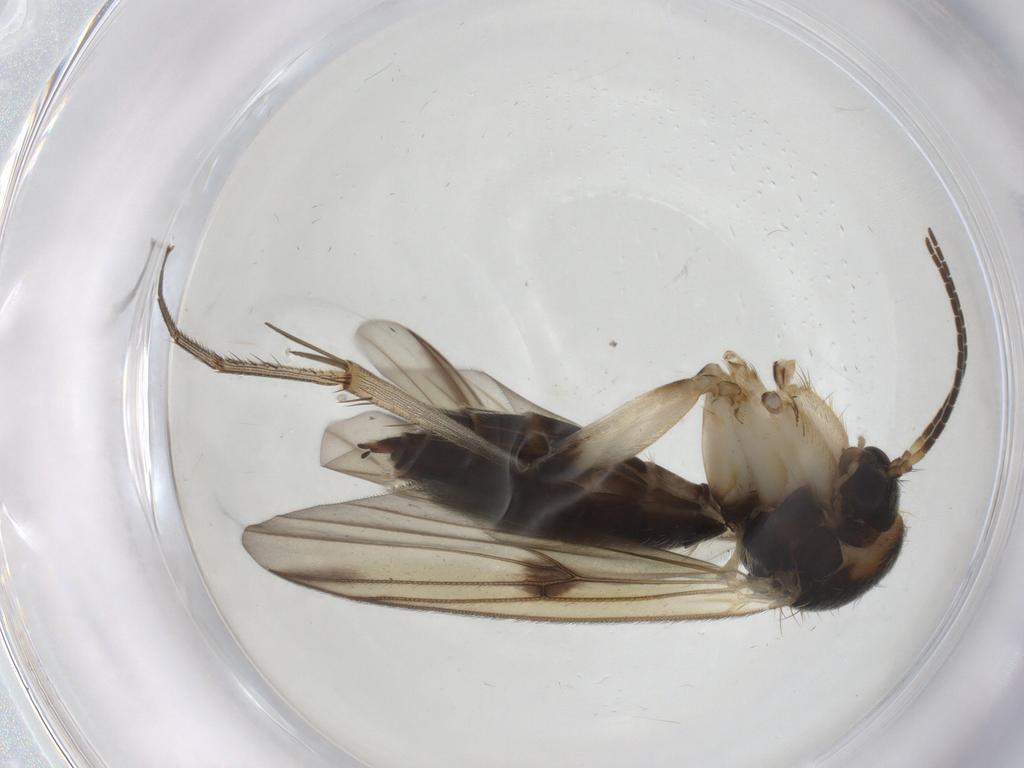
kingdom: Animalia
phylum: Arthropoda
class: Insecta
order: Diptera
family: Mycetophilidae
